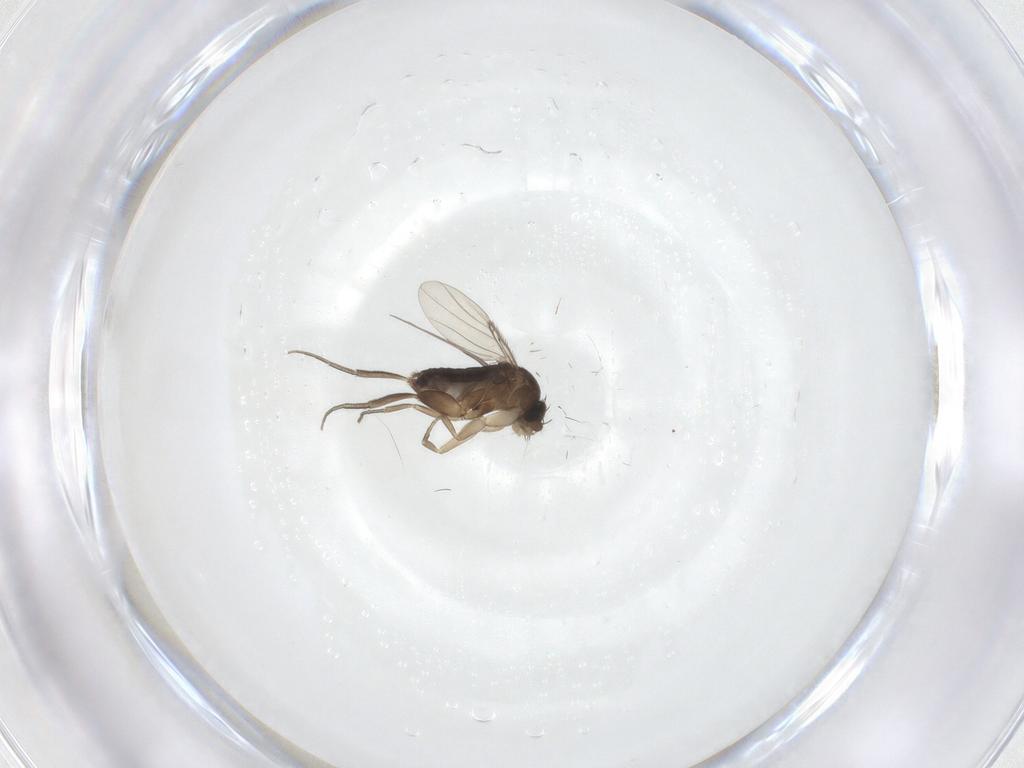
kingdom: Animalia
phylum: Arthropoda
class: Insecta
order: Diptera
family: Phoridae
